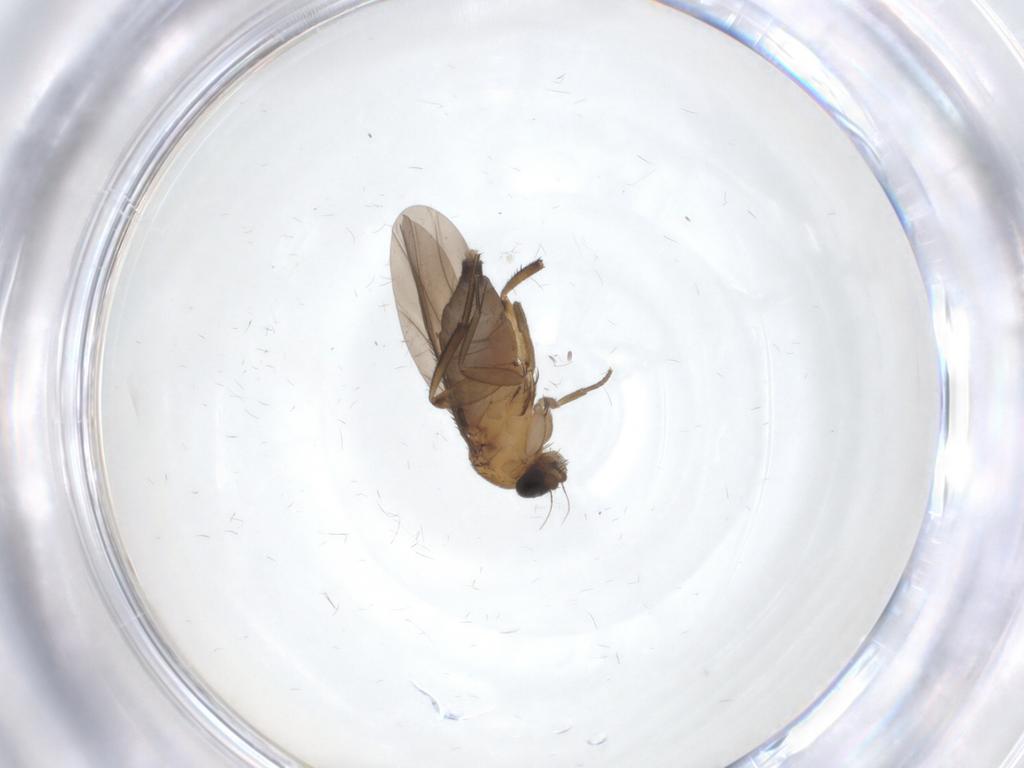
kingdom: Animalia
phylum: Arthropoda
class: Insecta
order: Diptera
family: Phoridae
